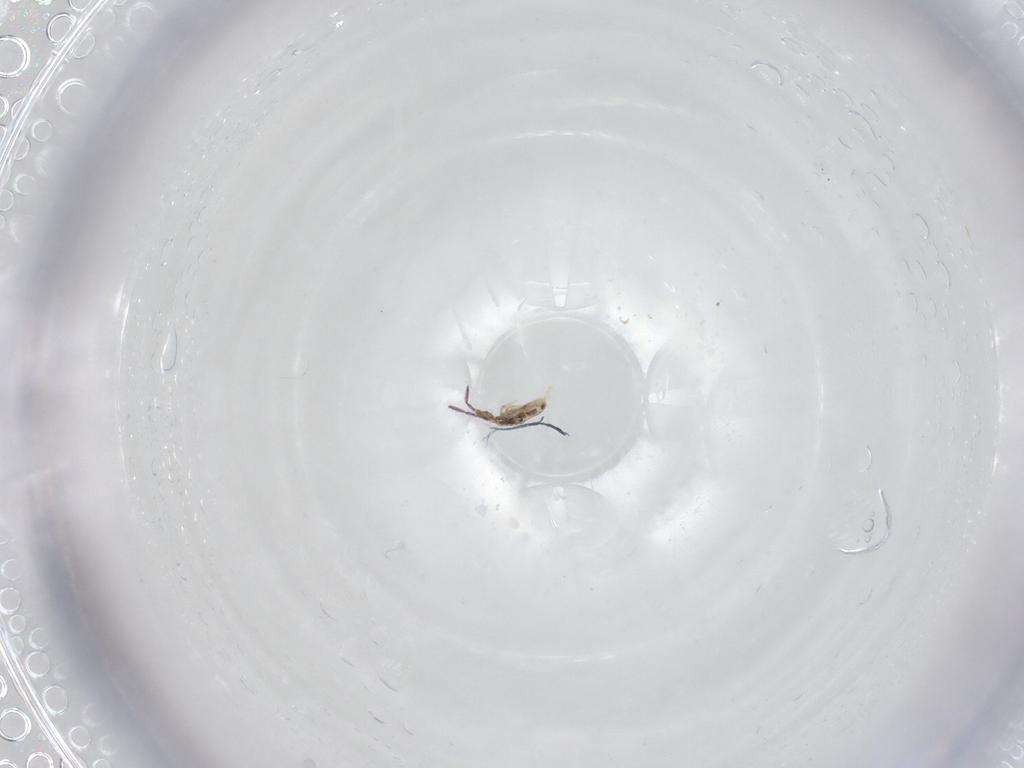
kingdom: Animalia
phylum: Arthropoda
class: Collembola
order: Entomobryomorpha
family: Entomobryidae
